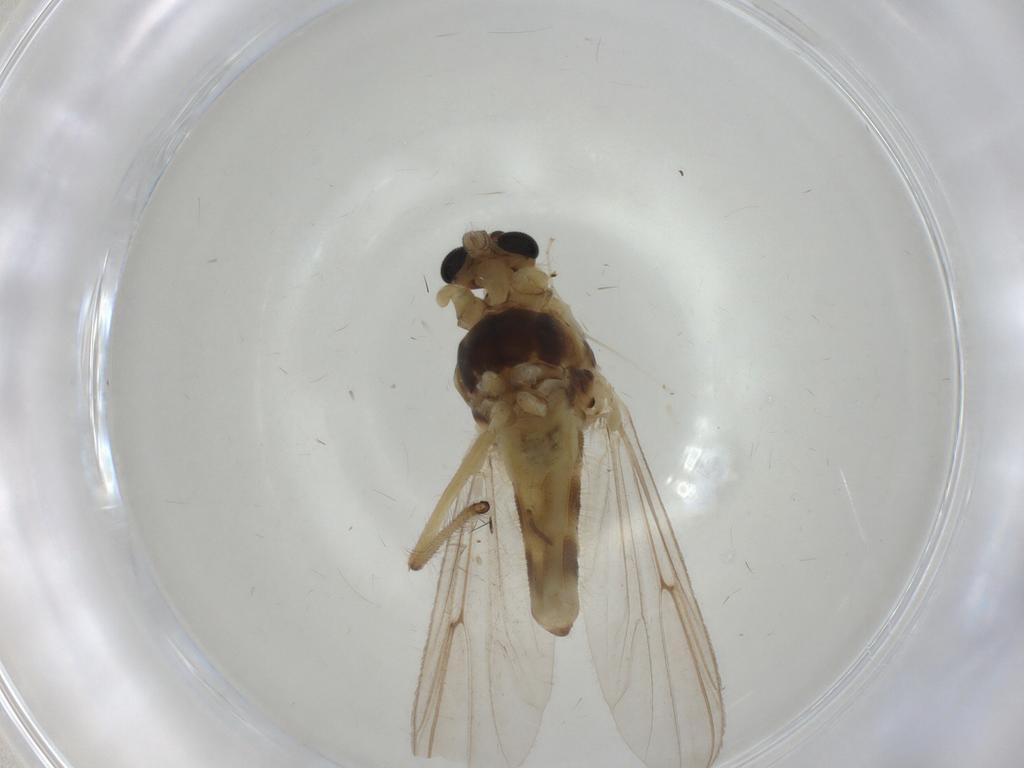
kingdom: Animalia
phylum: Arthropoda
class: Insecta
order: Diptera
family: Chironomidae
